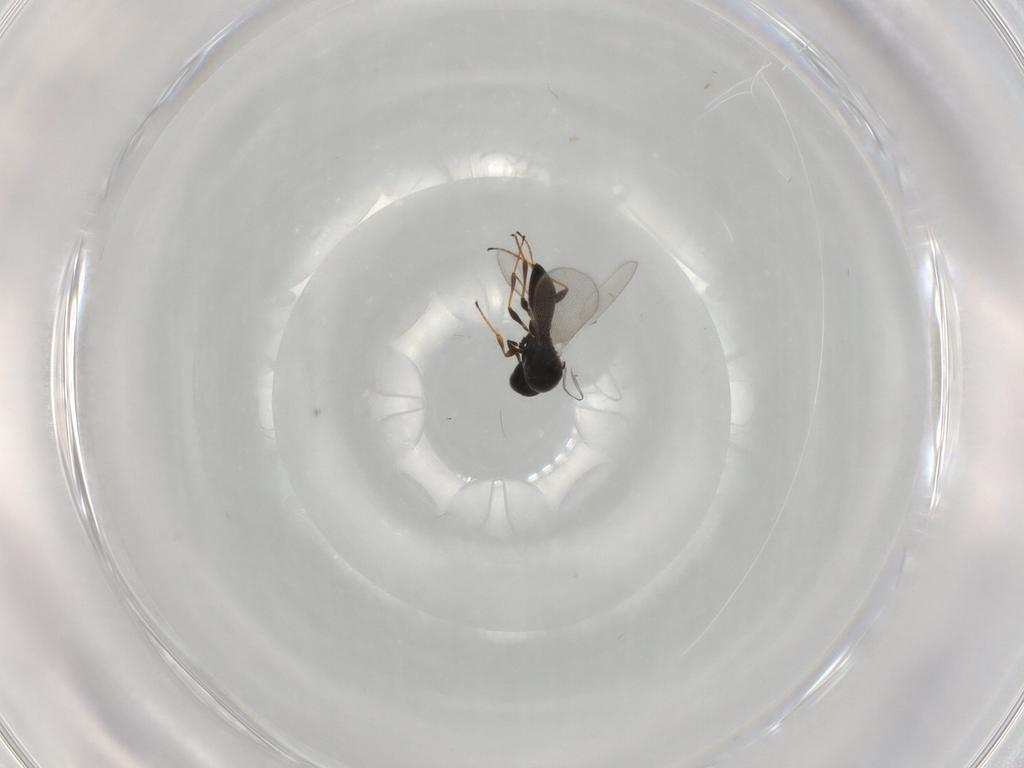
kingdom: Animalia
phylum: Arthropoda
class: Insecta
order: Hymenoptera
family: Platygastridae
